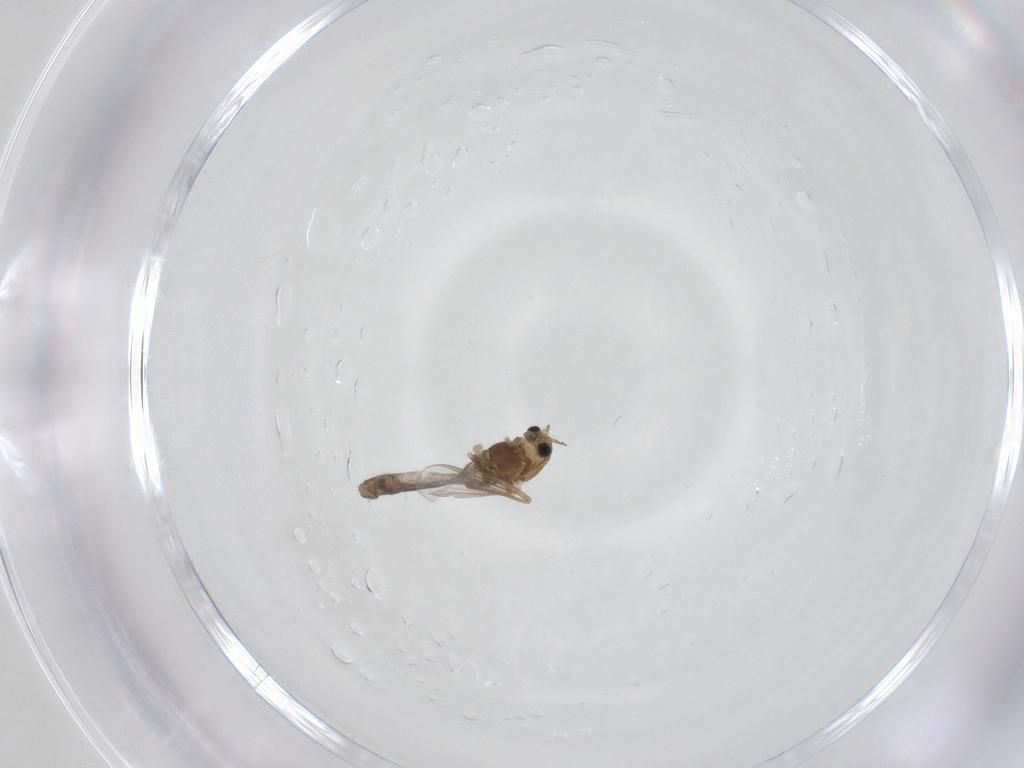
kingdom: Animalia
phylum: Arthropoda
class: Insecta
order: Diptera
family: Chironomidae
